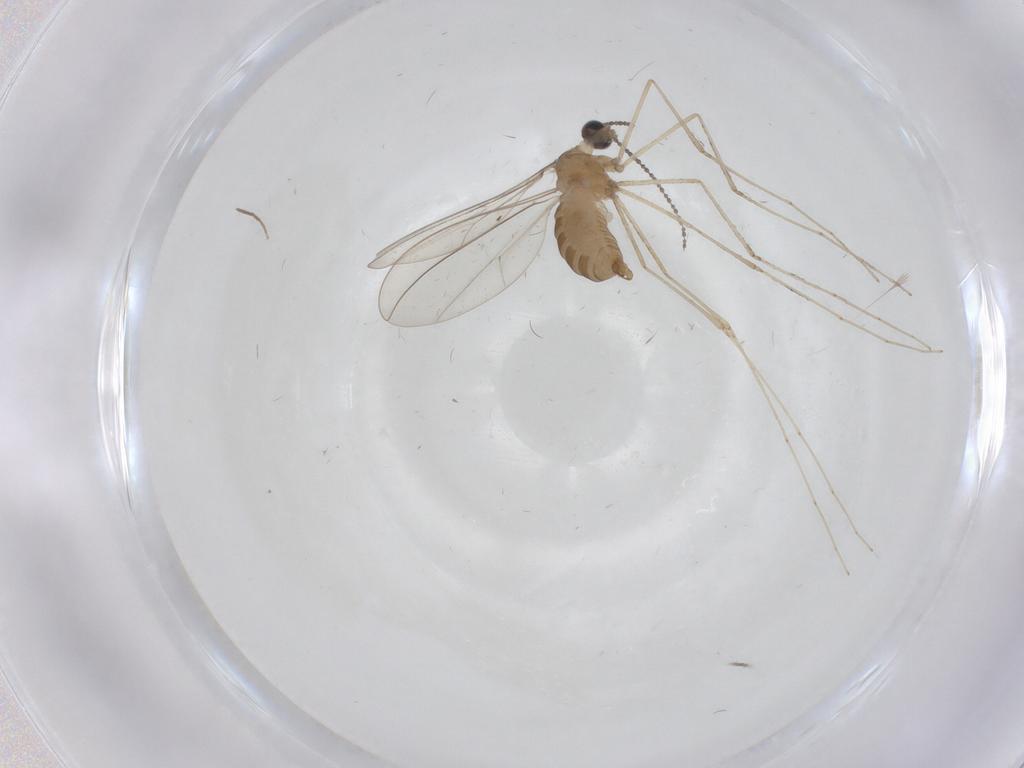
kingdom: Animalia
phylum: Arthropoda
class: Insecta
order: Diptera
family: Cecidomyiidae
